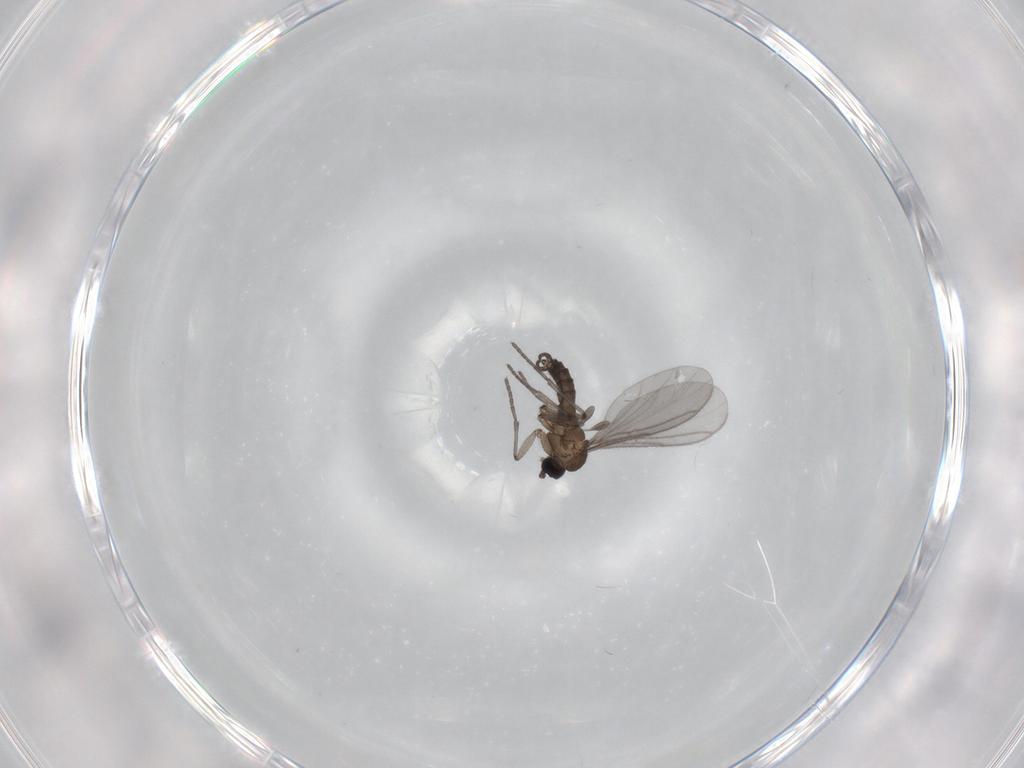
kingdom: Animalia
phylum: Arthropoda
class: Insecta
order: Diptera
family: Sciaridae
